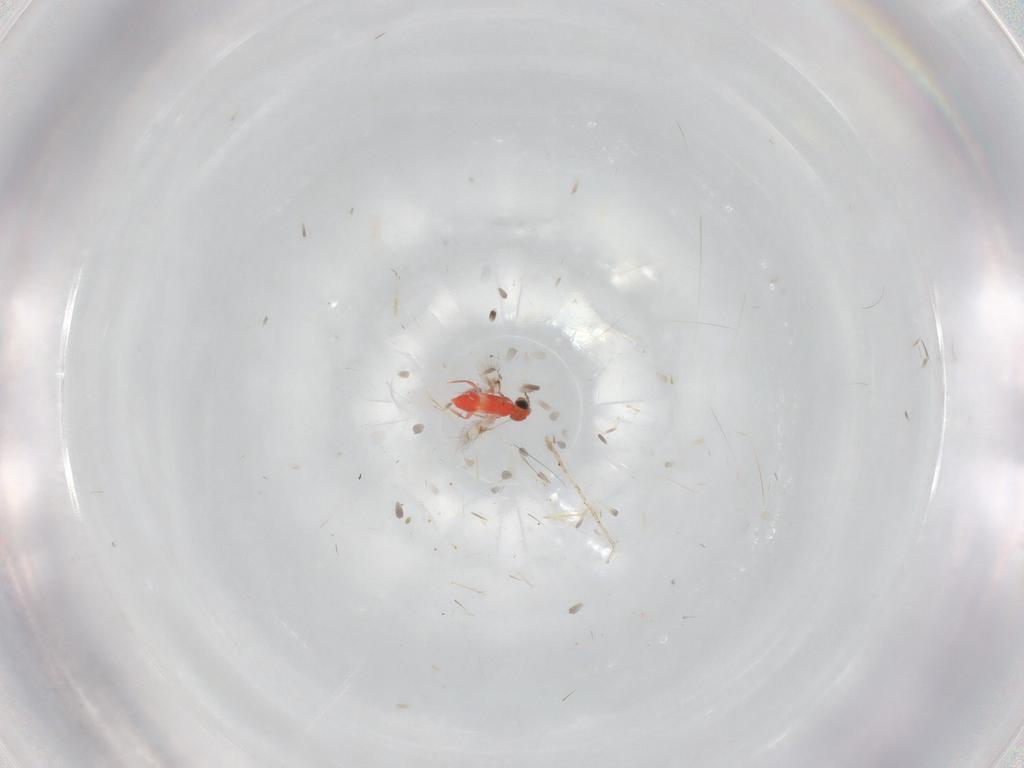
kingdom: Animalia
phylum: Arthropoda
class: Insecta
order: Hymenoptera
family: Trichogrammatidae
